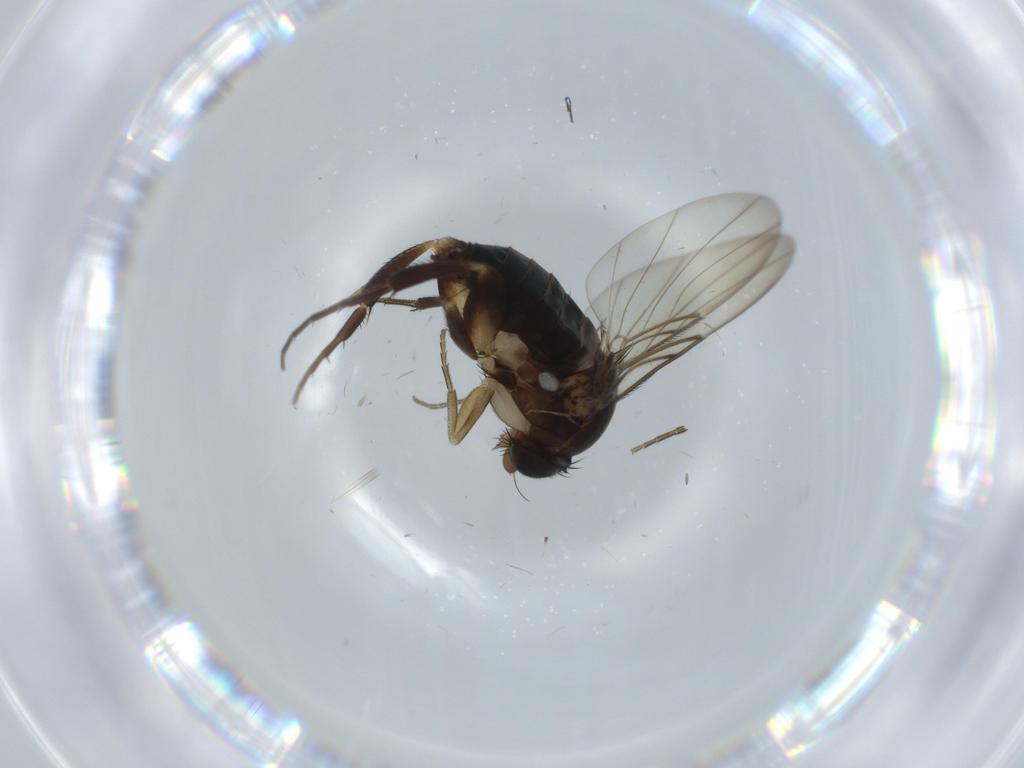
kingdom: Animalia
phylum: Arthropoda
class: Insecta
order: Diptera
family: Phoridae
